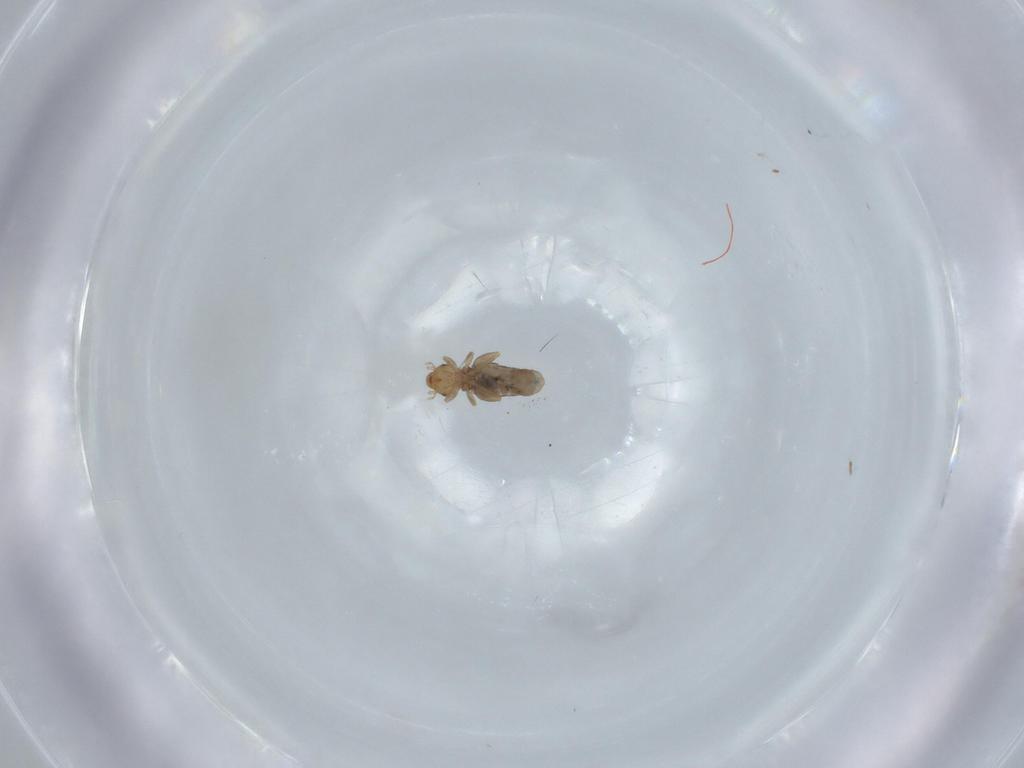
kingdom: Animalia
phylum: Arthropoda
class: Insecta
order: Psocodea
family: Liposcelididae
